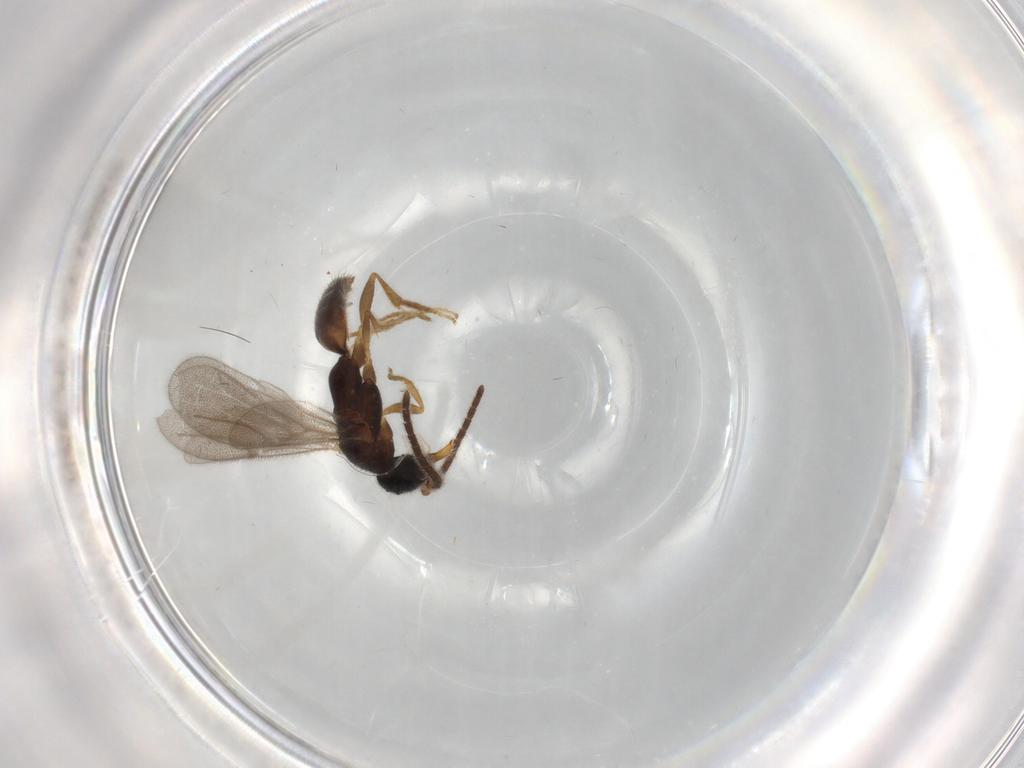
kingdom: Animalia
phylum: Arthropoda
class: Insecta
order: Hymenoptera
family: Bethylidae
